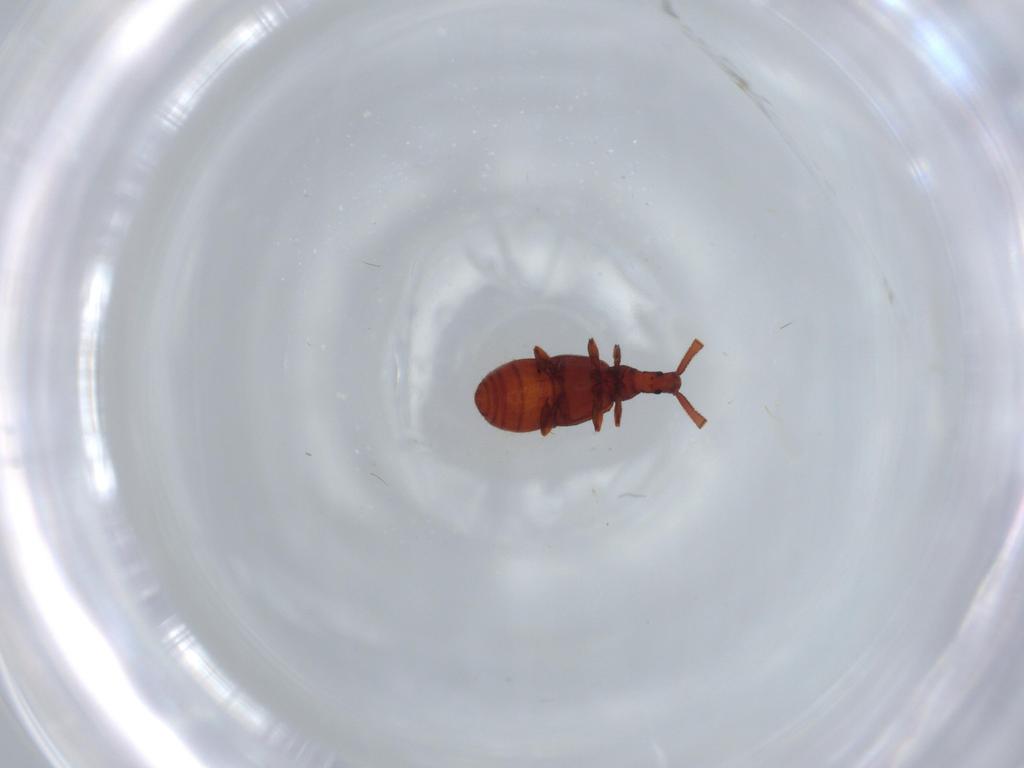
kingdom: Animalia
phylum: Arthropoda
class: Insecta
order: Coleoptera
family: Staphylinidae
